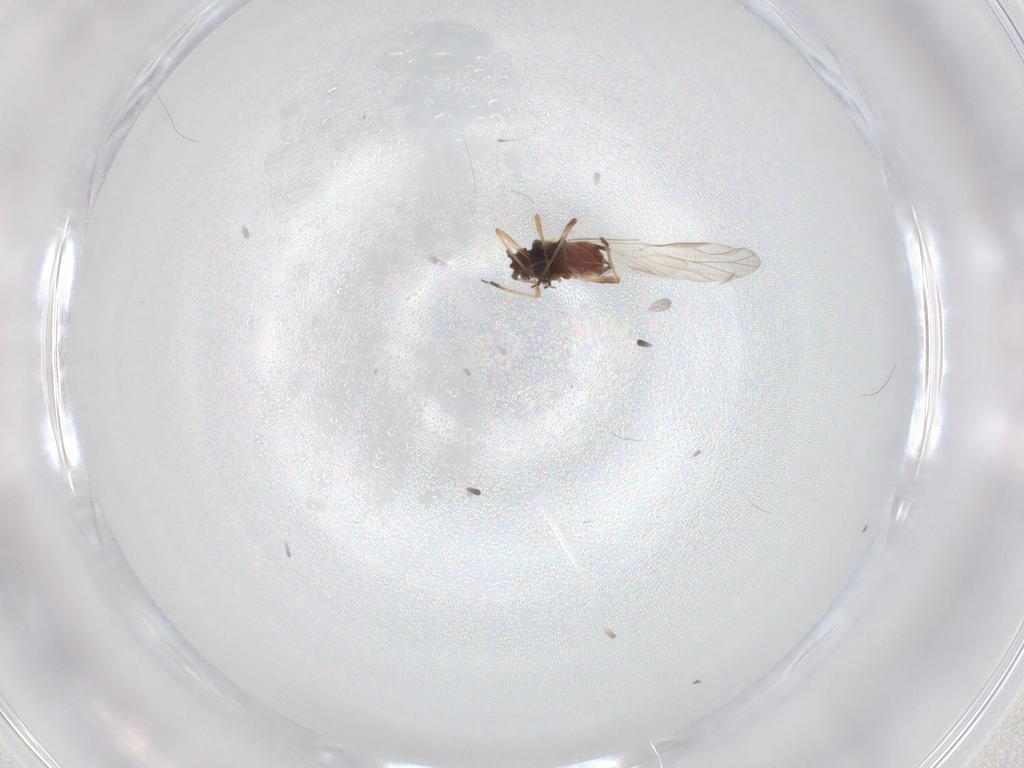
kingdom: Animalia
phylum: Arthropoda
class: Insecta
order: Hemiptera
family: Aphididae
